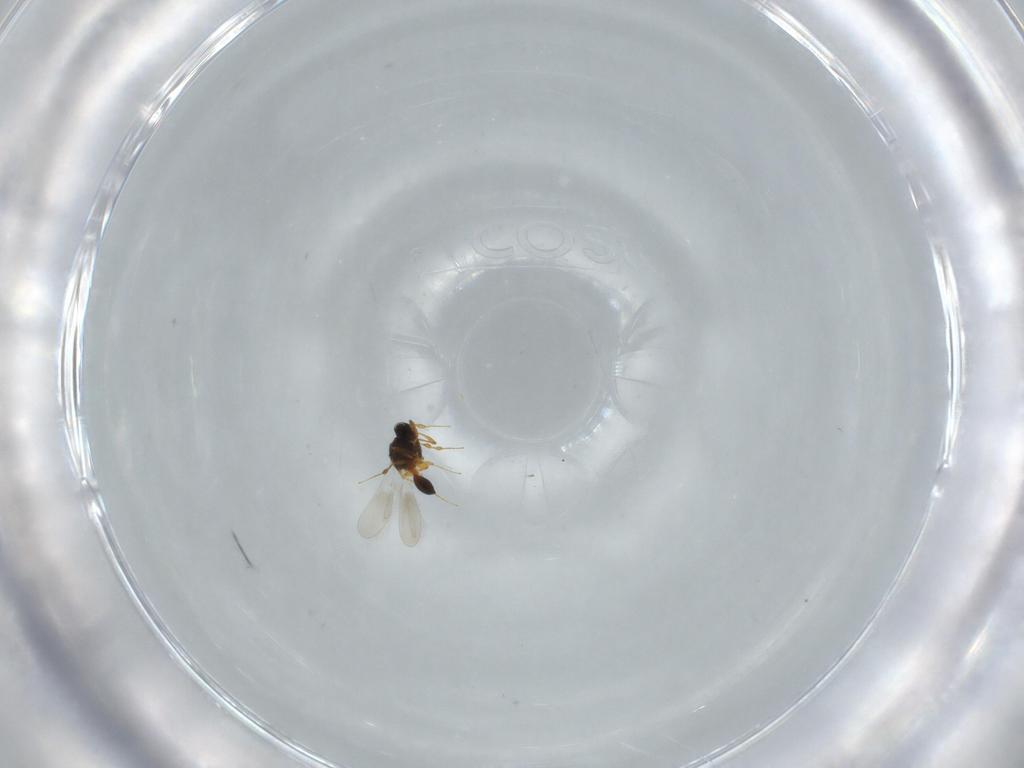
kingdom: Animalia
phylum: Arthropoda
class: Insecta
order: Hymenoptera
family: Platygastridae
